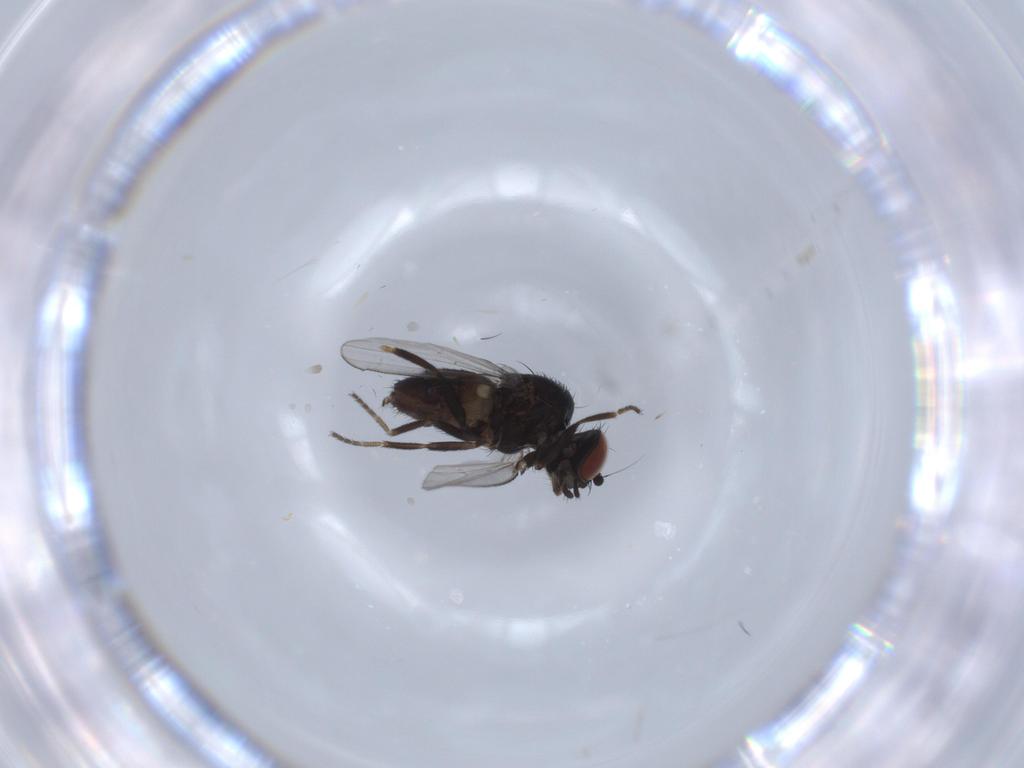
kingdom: Animalia
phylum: Arthropoda
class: Insecta
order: Diptera
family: Milichiidae
